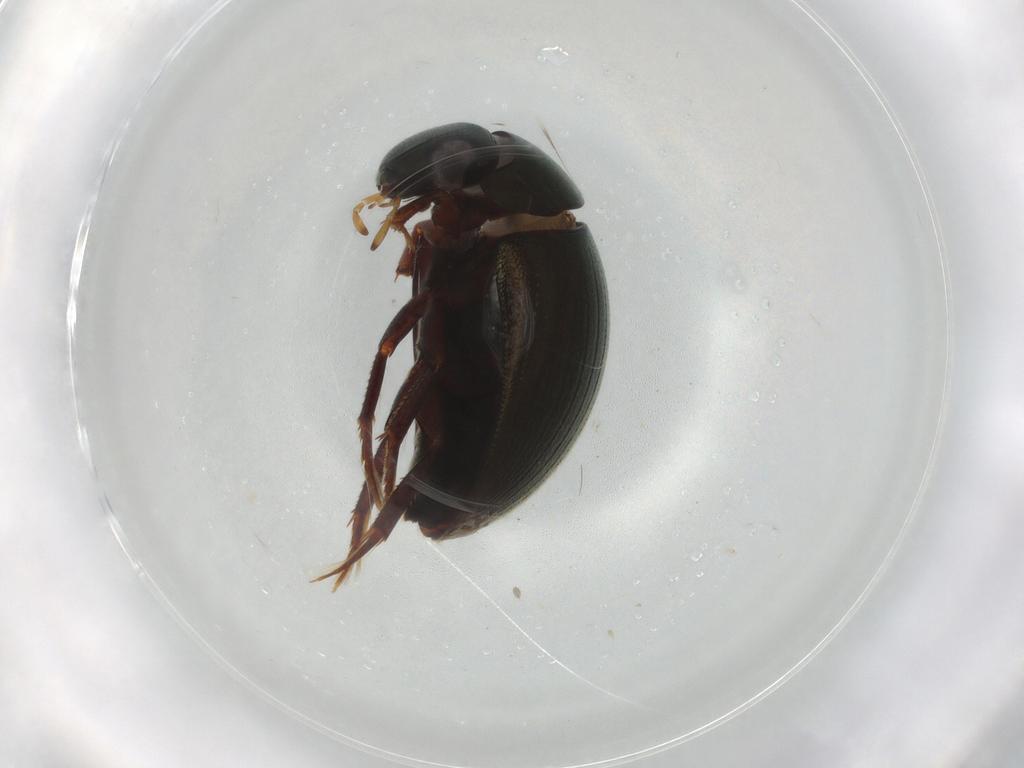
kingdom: Animalia
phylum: Arthropoda
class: Insecta
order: Coleoptera
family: Hydrophilidae
